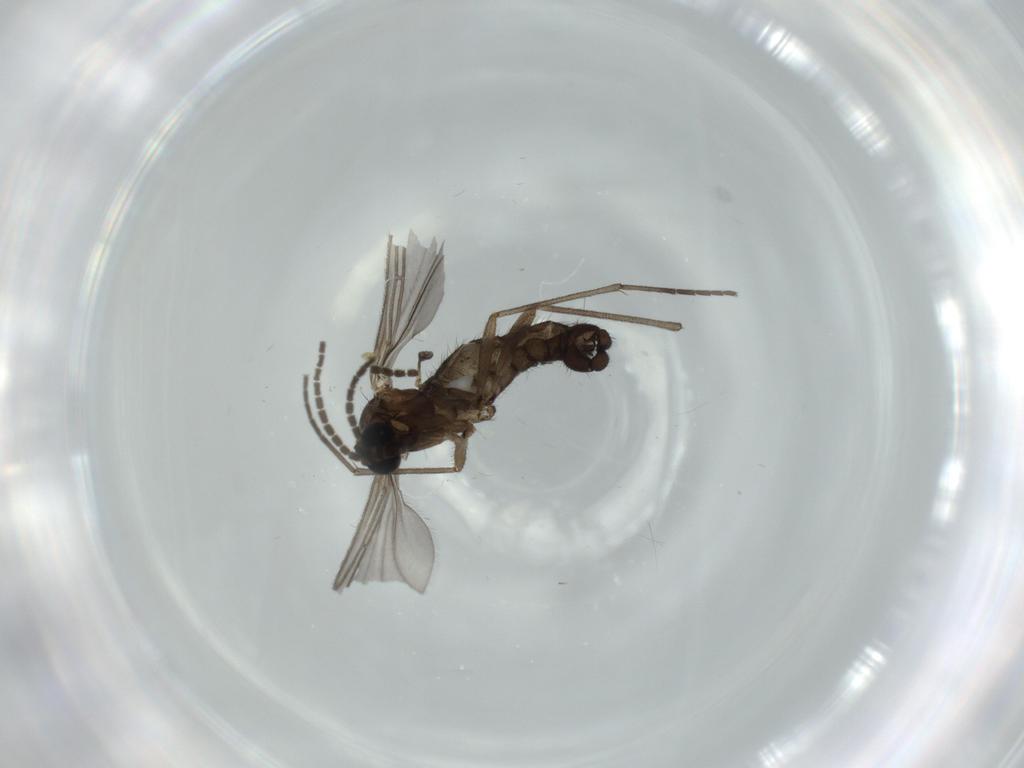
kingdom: Animalia
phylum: Arthropoda
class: Insecta
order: Diptera
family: Sciaridae
